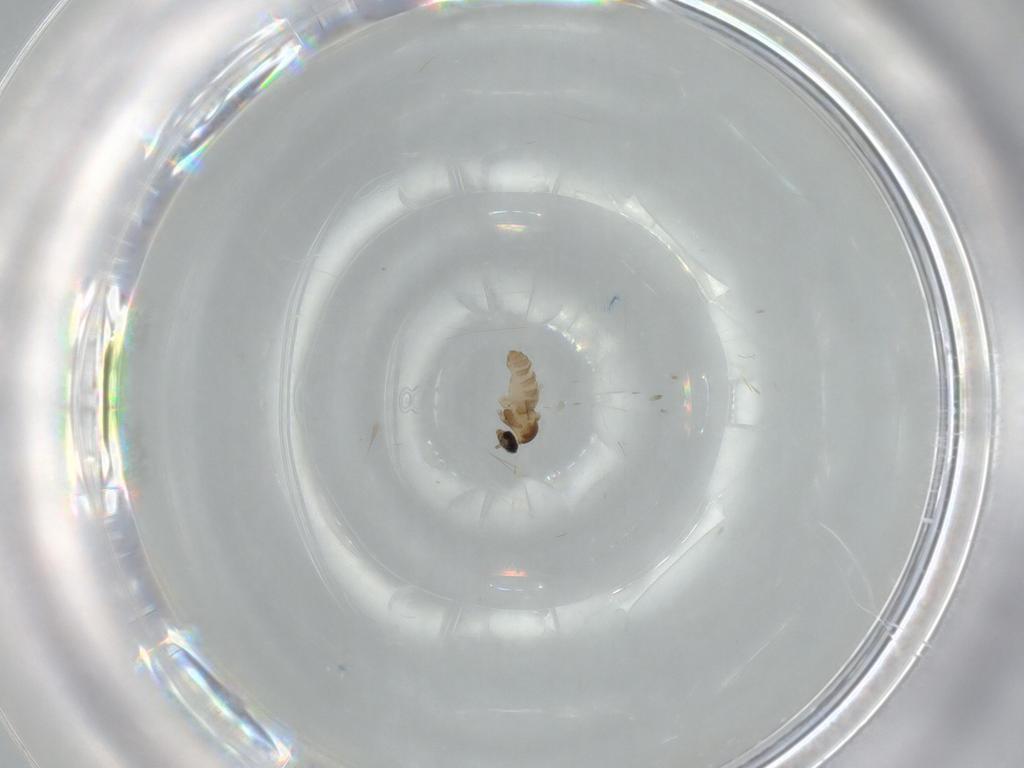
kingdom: Animalia
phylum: Arthropoda
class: Insecta
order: Diptera
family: Cecidomyiidae
